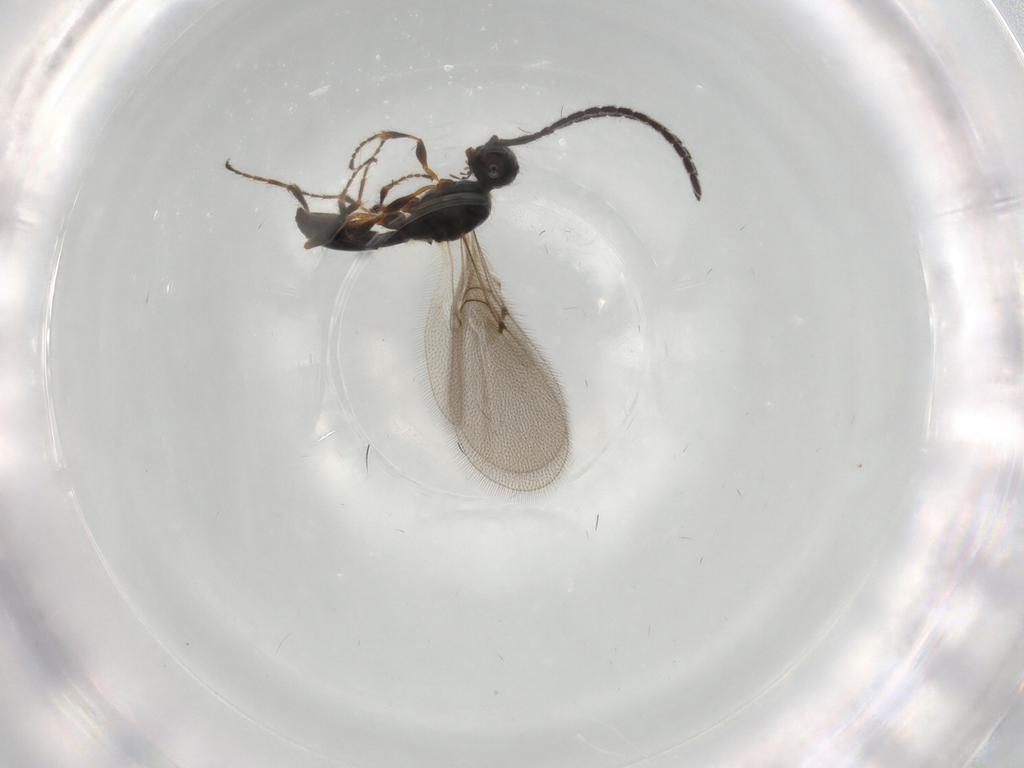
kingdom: Animalia
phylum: Arthropoda
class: Insecta
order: Hymenoptera
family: Diapriidae
